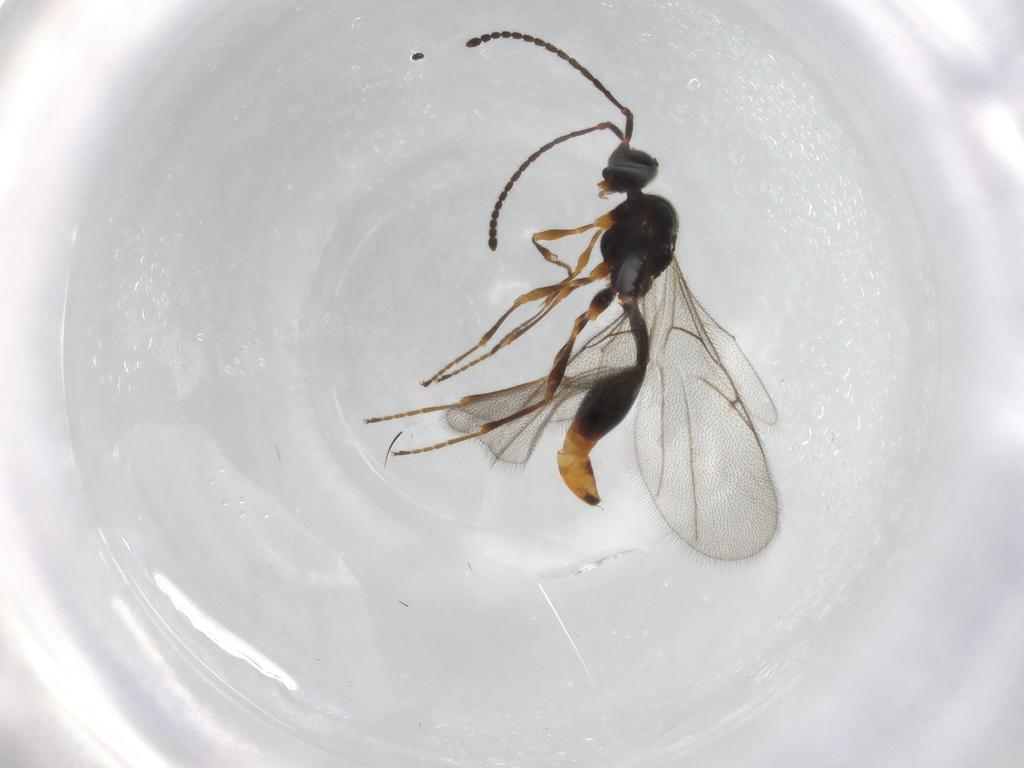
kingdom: Animalia
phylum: Arthropoda
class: Insecta
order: Hymenoptera
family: Diapriidae
